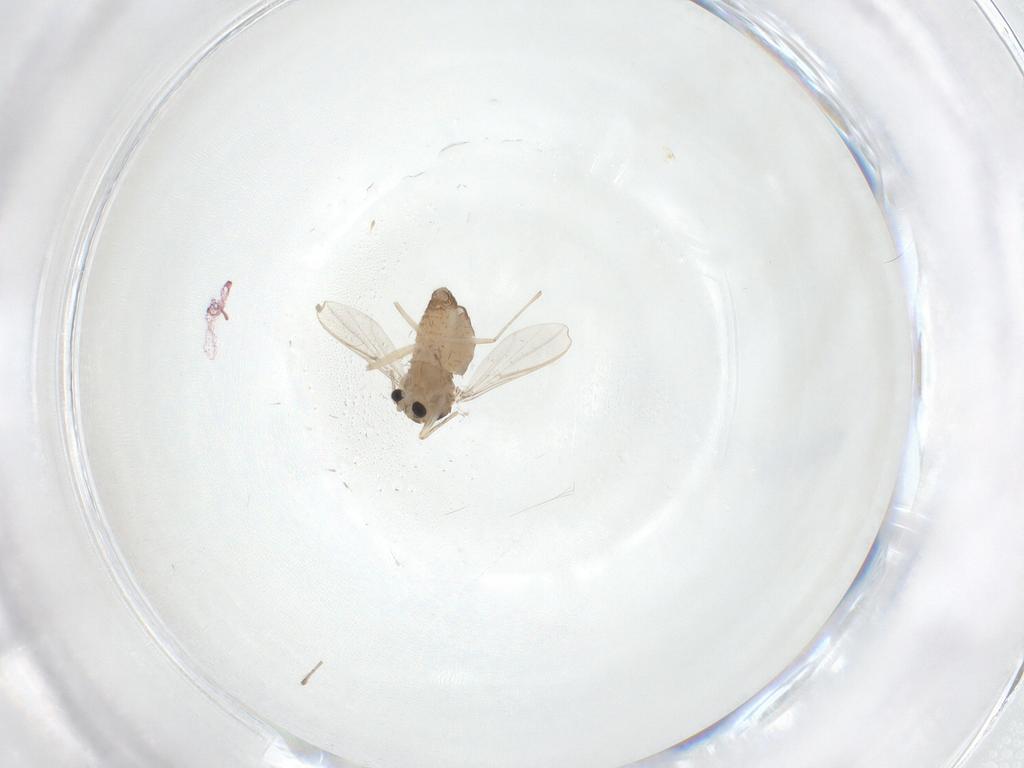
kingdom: Animalia
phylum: Arthropoda
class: Insecta
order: Diptera
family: Chironomidae
